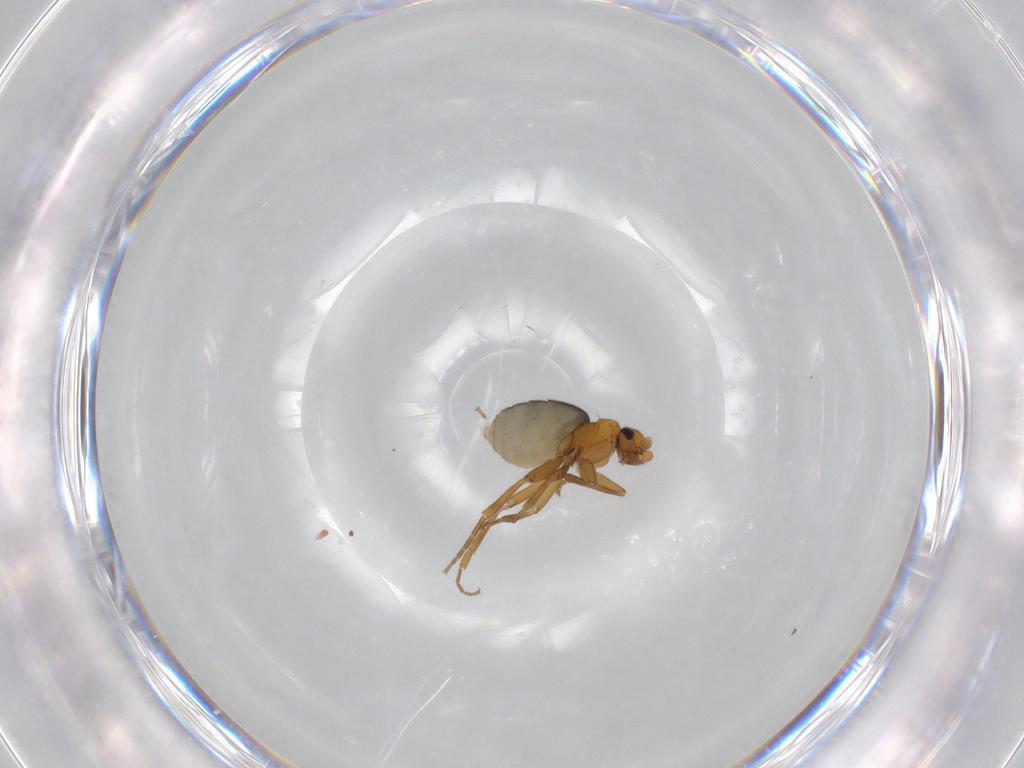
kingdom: Animalia
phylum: Arthropoda
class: Insecta
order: Diptera
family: Phoridae
